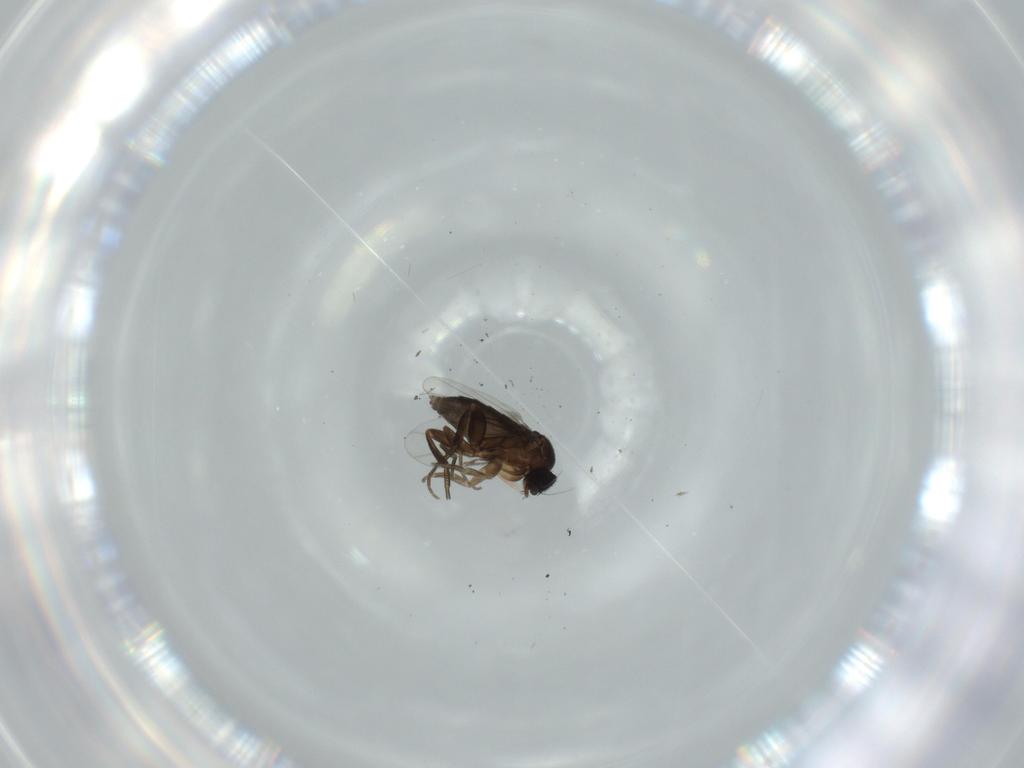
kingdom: Animalia
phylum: Arthropoda
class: Insecta
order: Diptera
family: Phoridae
